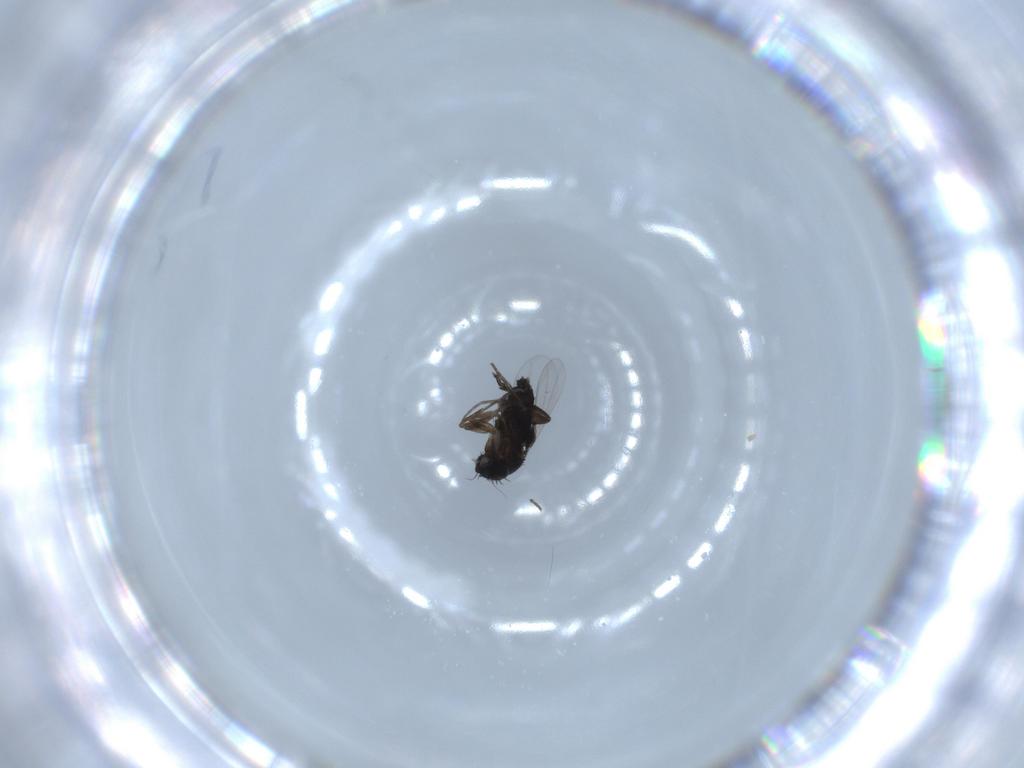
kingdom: Animalia
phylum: Arthropoda
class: Insecta
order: Diptera
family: Phoridae
